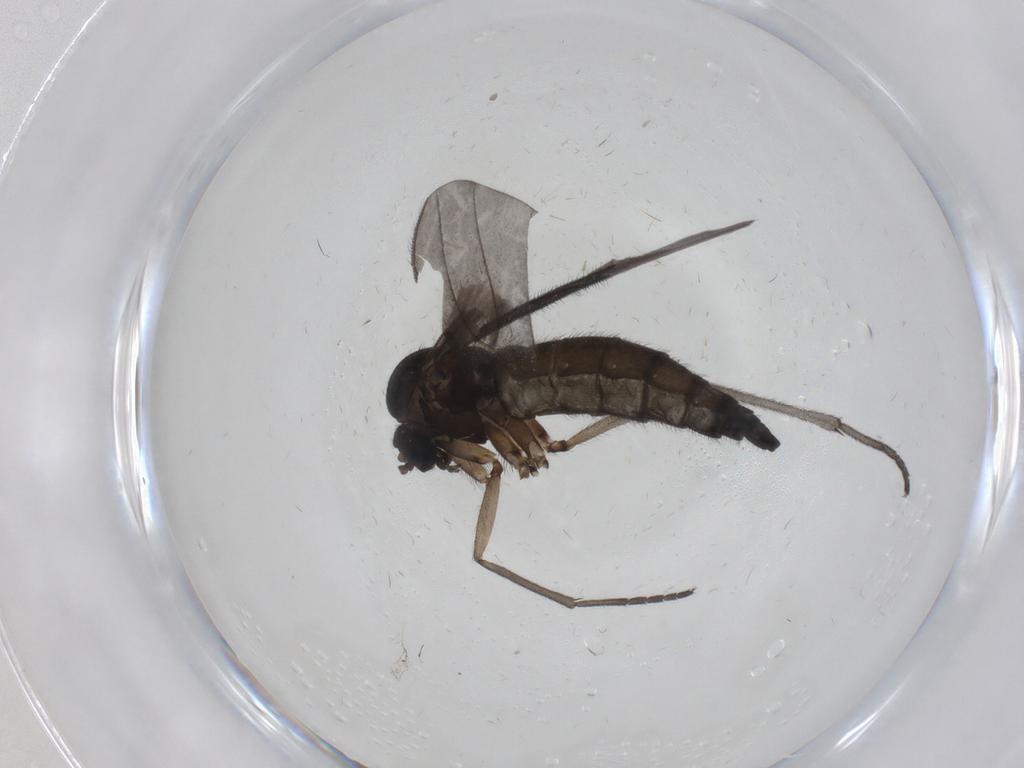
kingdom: Animalia
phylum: Arthropoda
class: Insecta
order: Diptera
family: Sciaridae
